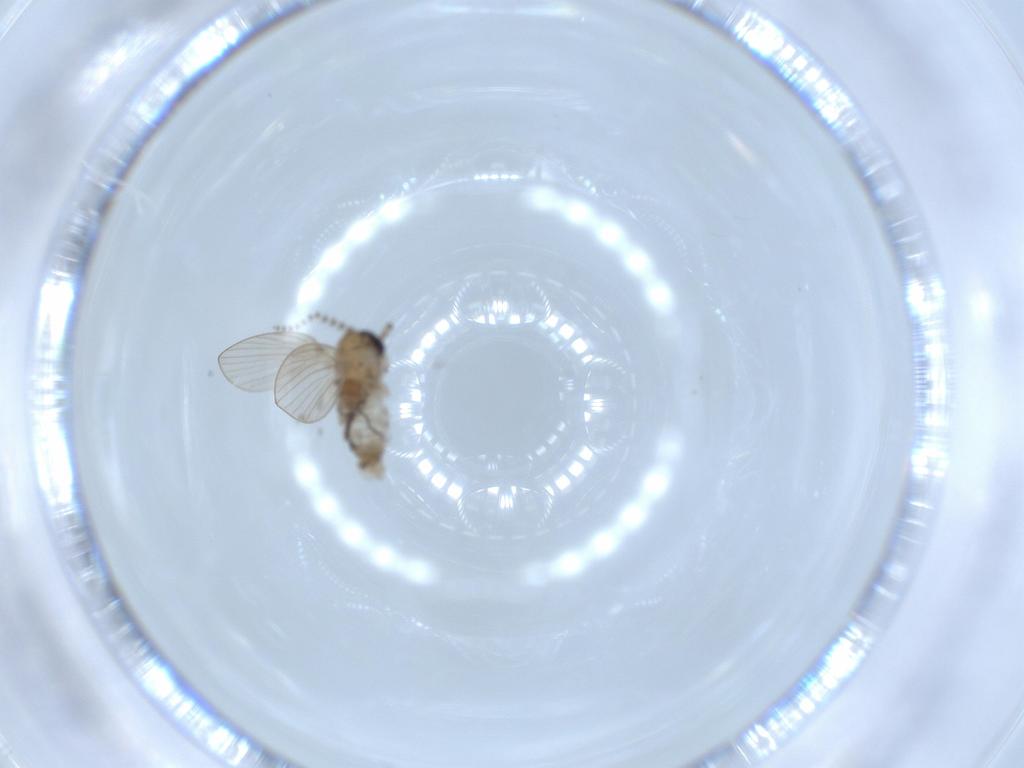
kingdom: Animalia
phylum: Arthropoda
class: Insecta
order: Diptera
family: Psychodidae
